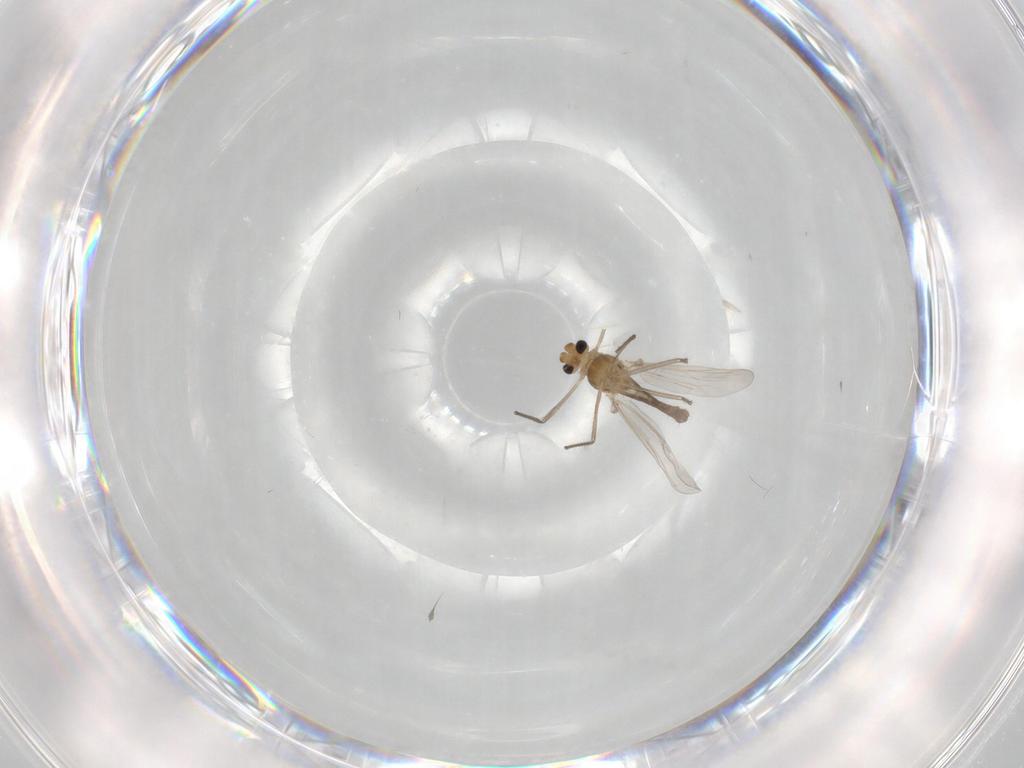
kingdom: Animalia
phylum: Arthropoda
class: Insecta
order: Diptera
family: Chironomidae
